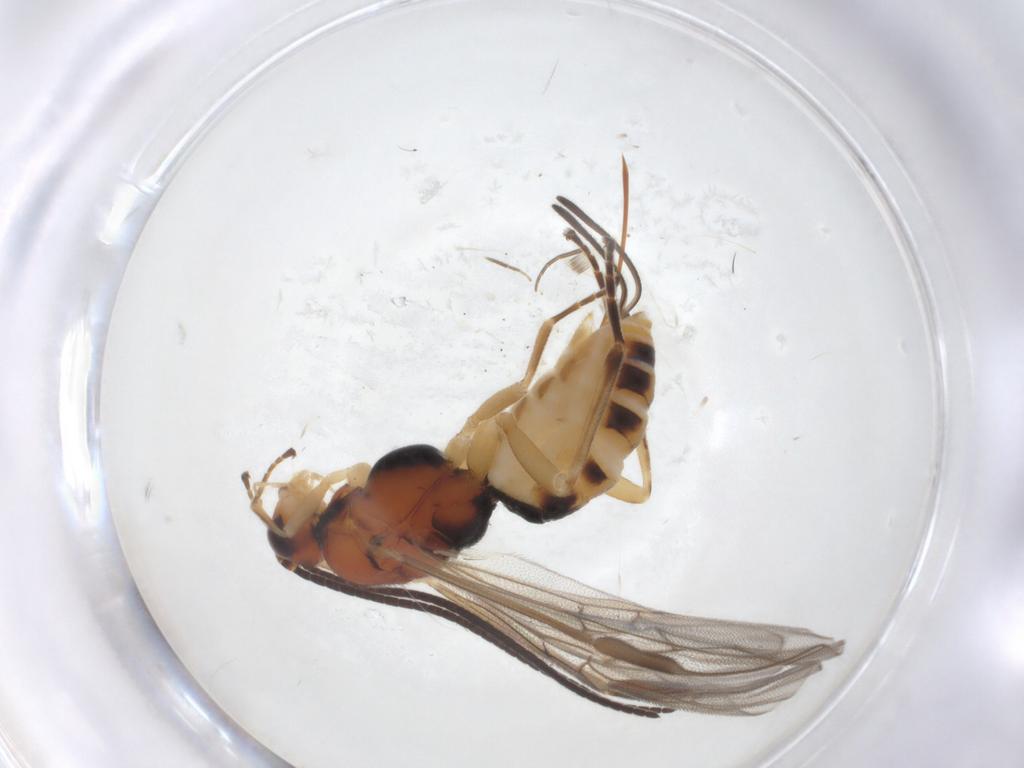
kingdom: Animalia
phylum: Arthropoda
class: Insecta
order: Hymenoptera
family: Braconidae
